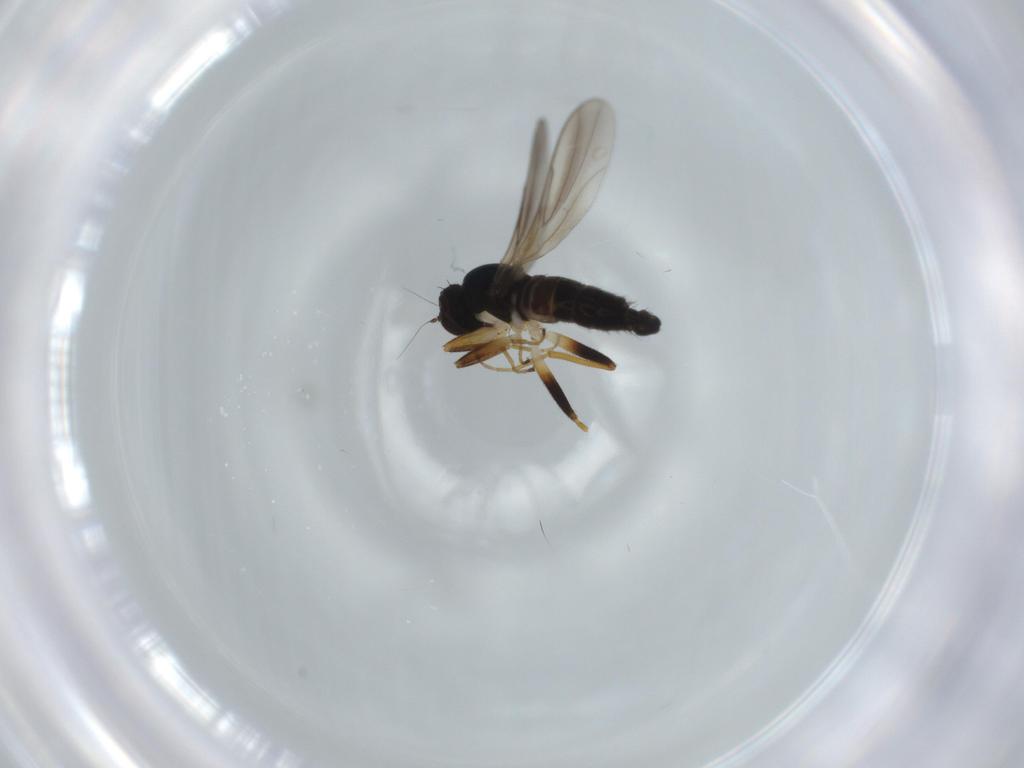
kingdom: Animalia
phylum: Arthropoda
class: Insecta
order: Diptera
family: Hybotidae
